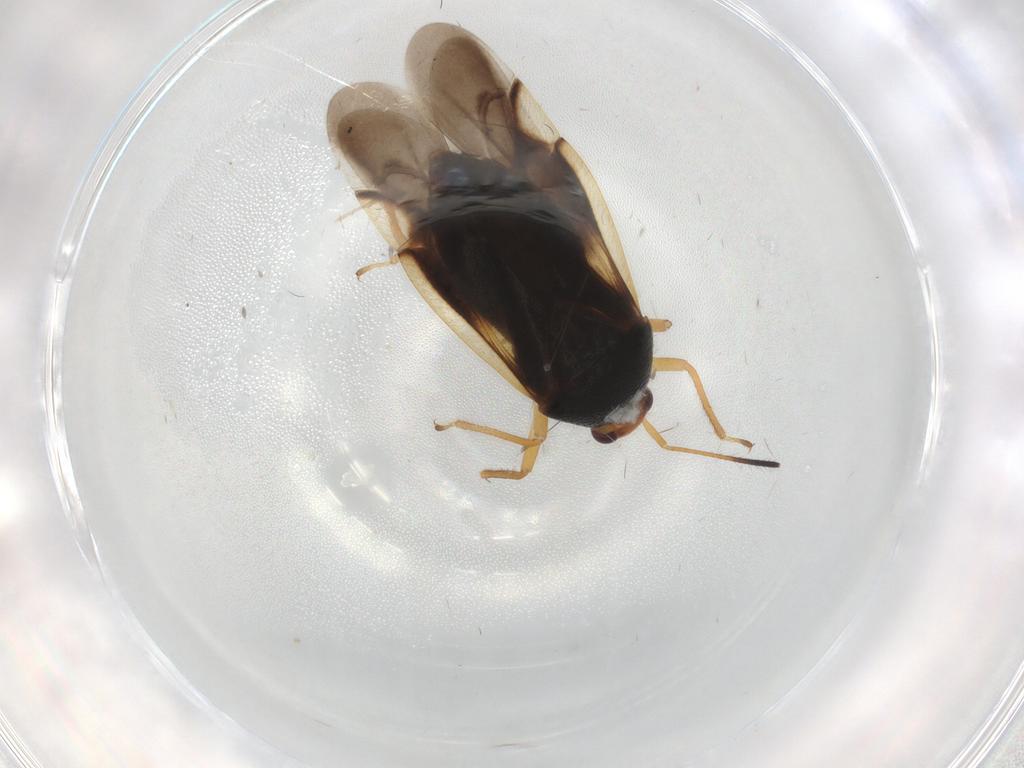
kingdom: Animalia
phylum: Arthropoda
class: Insecta
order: Hemiptera
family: Miridae
